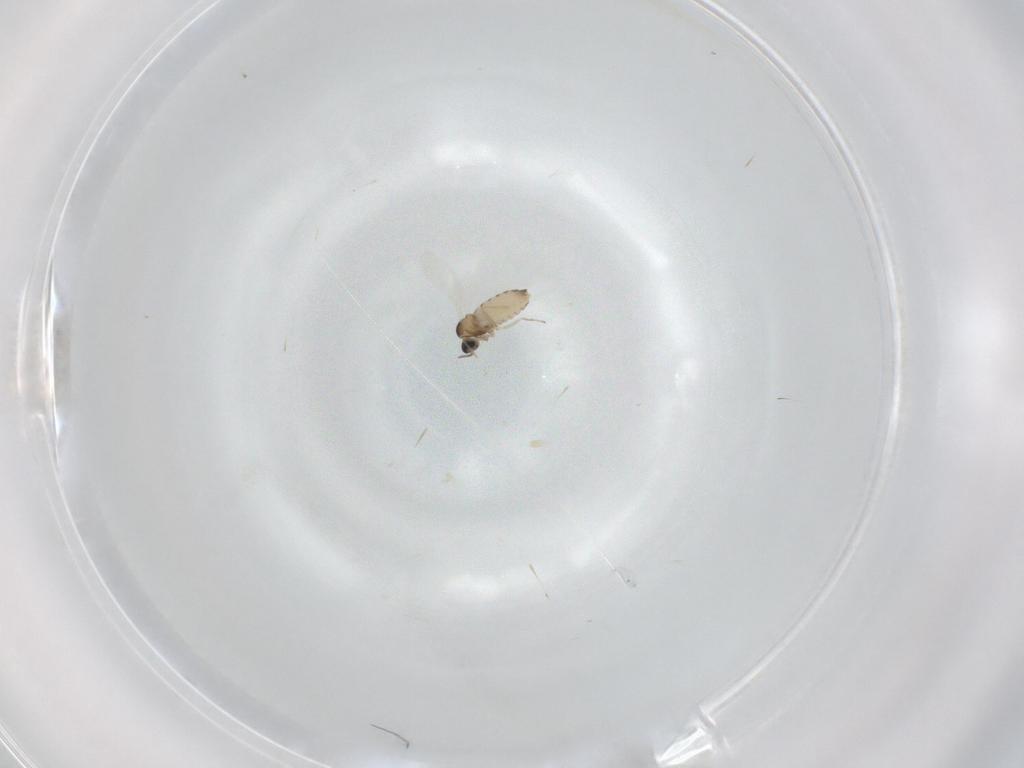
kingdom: Animalia
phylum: Arthropoda
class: Insecta
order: Diptera
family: Cecidomyiidae
